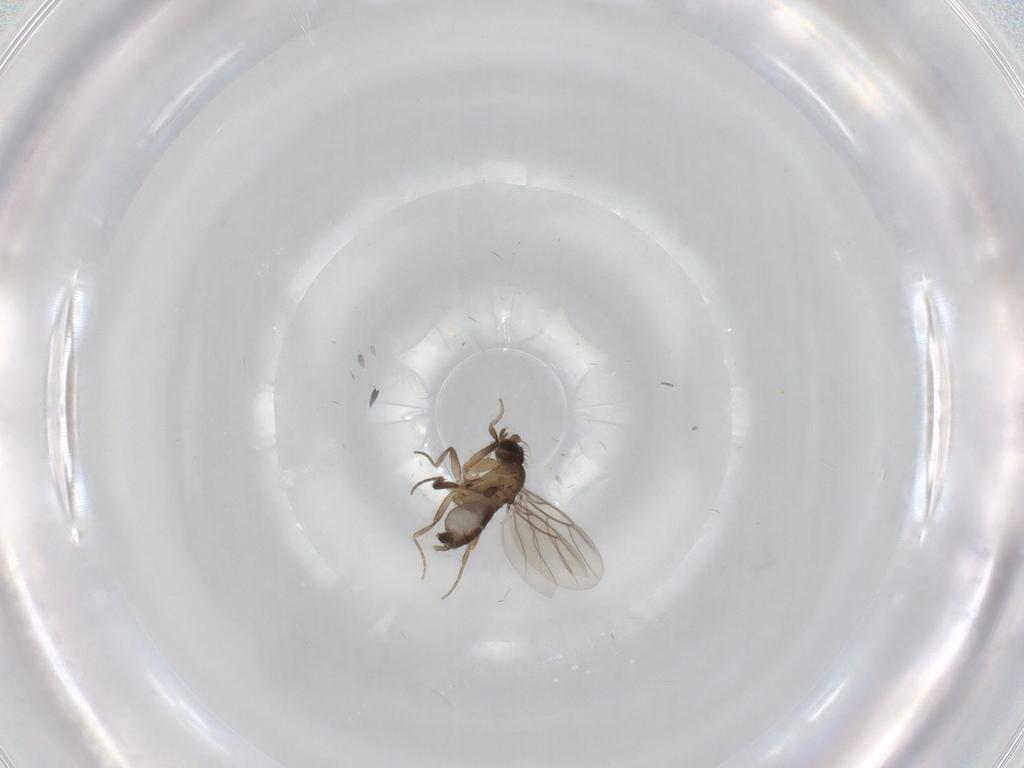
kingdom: Animalia
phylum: Arthropoda
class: Insecta
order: Diptera
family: Phoridae
